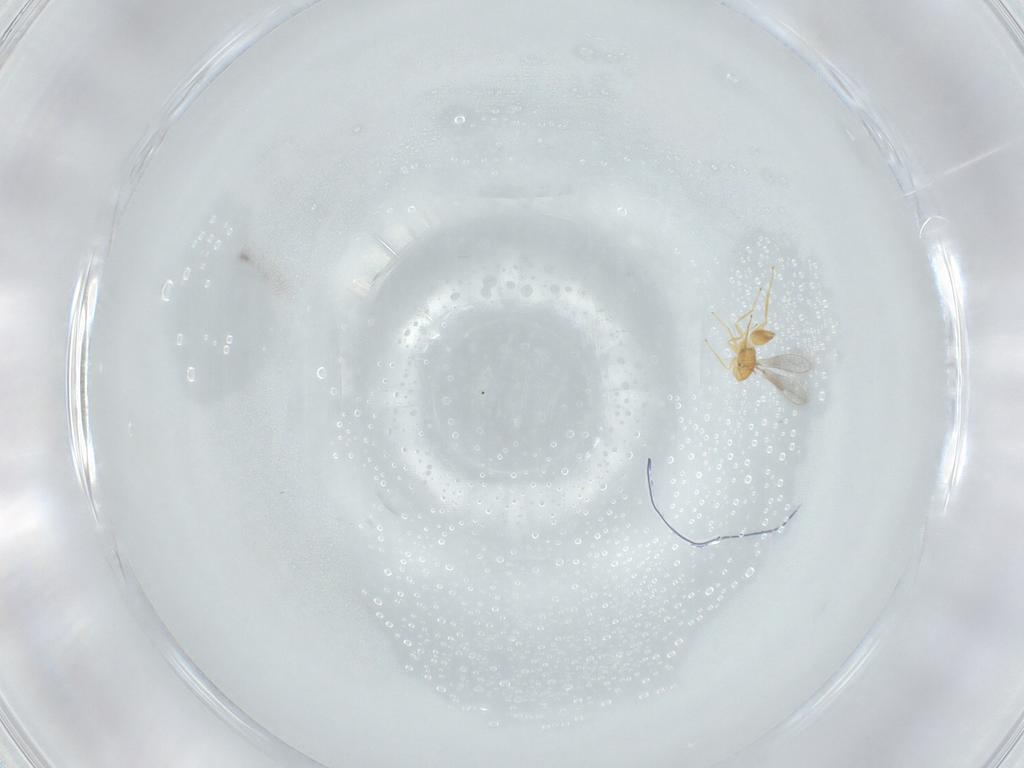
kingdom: Animalia
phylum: Arthropoda
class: Insecta
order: Hymenoptera
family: Mymaridae
